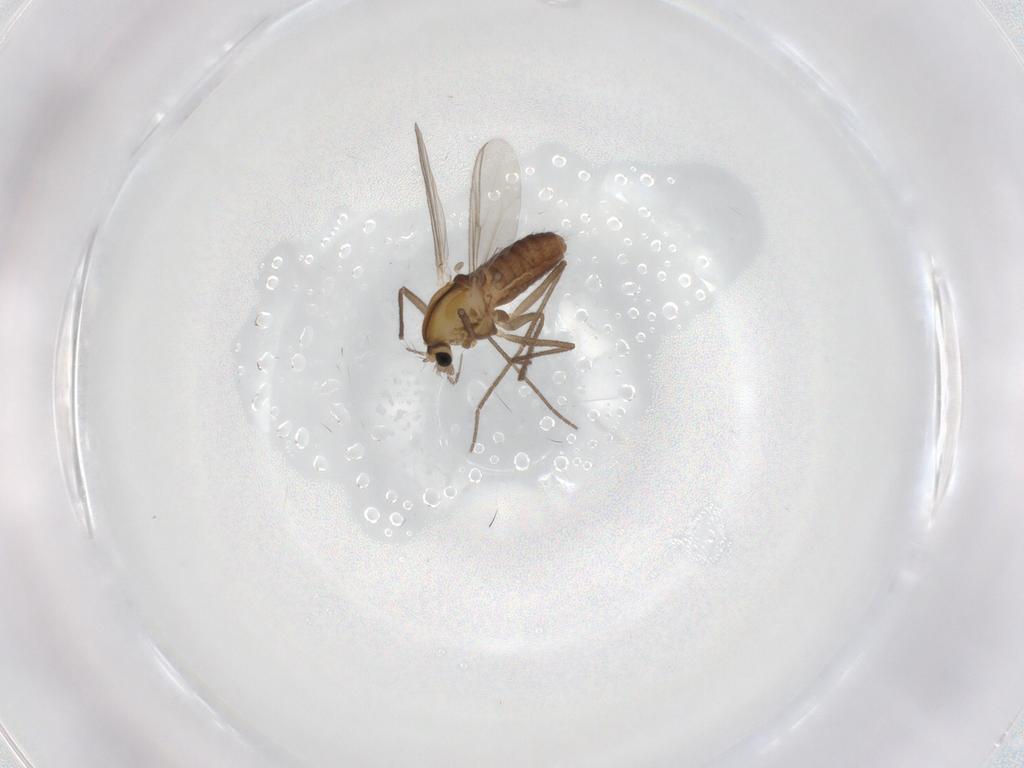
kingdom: Animalia
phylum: Arthropoda
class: Insecta
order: Diptera
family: Chironomidae
